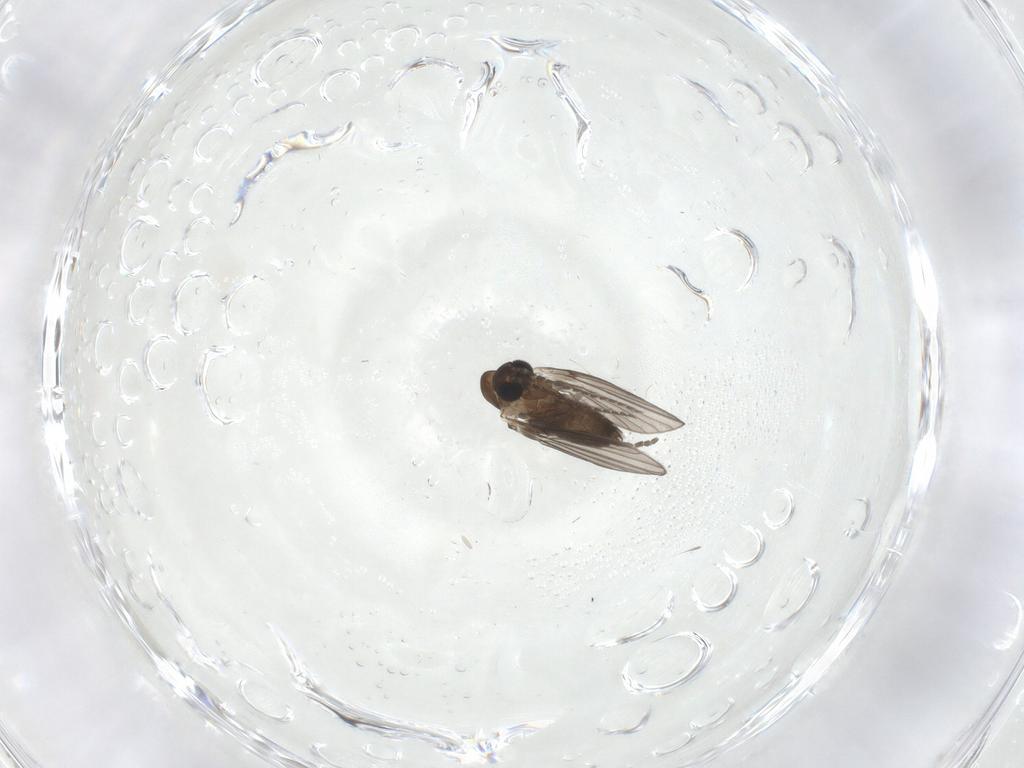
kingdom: Animalia
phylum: Arthropoda
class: Insecta
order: Diptera
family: Psychodidae
